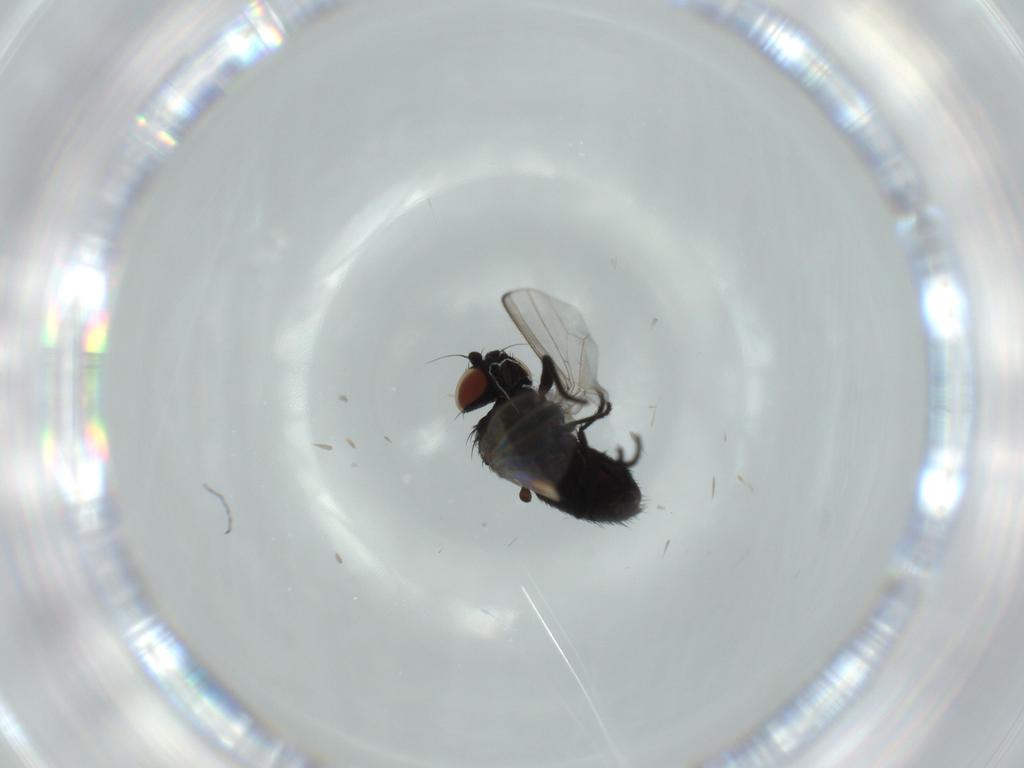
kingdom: Animalia
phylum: Arthropoda
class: Insecta
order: Diptera
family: Milichiidae
